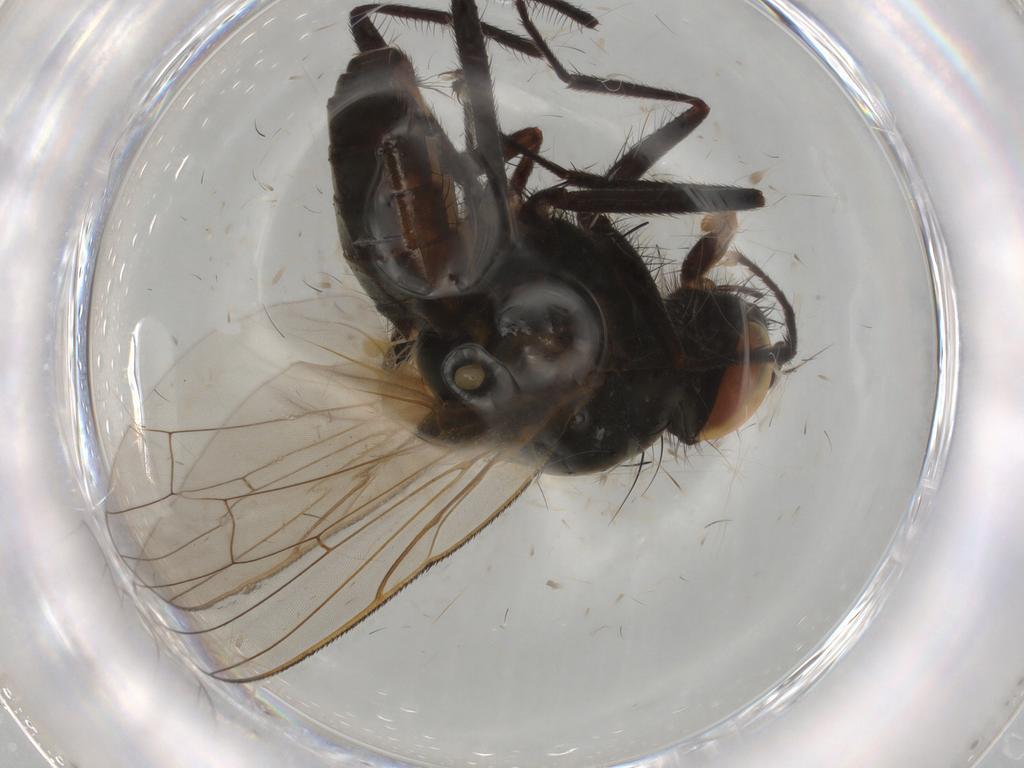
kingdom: Animalia
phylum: Arthropoda
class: Insecta
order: Diptera
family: Anthomyiidae
